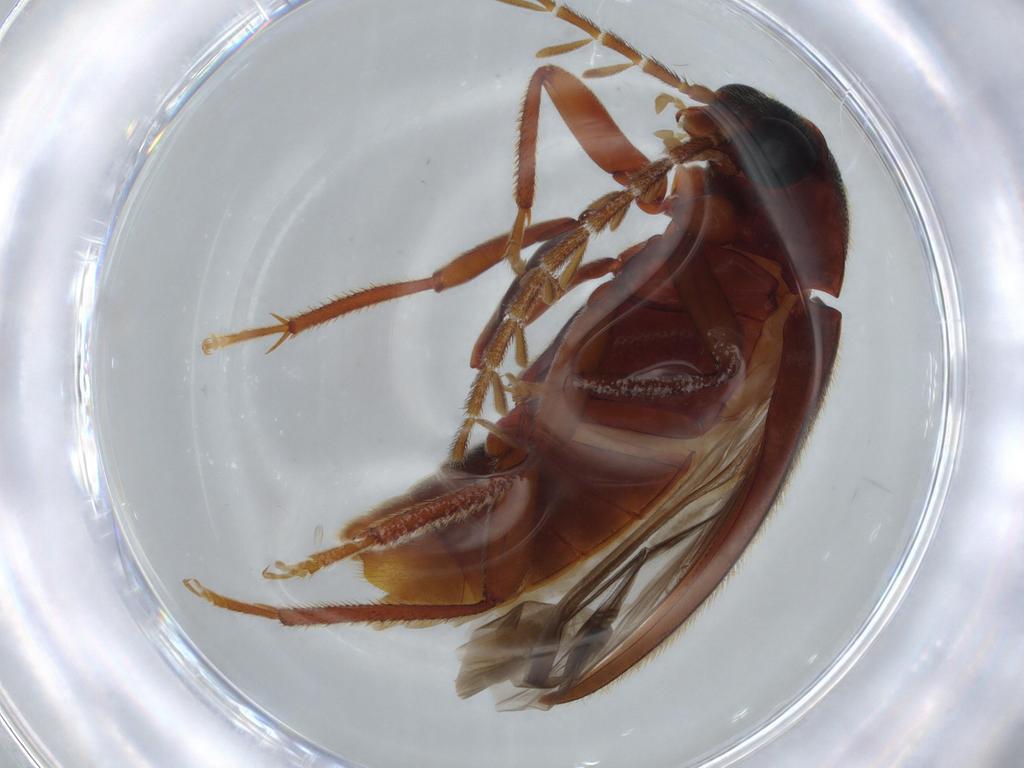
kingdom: Animalia
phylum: Arthropoda
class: Insecta
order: Coleoptera
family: Ptilodactylidae
